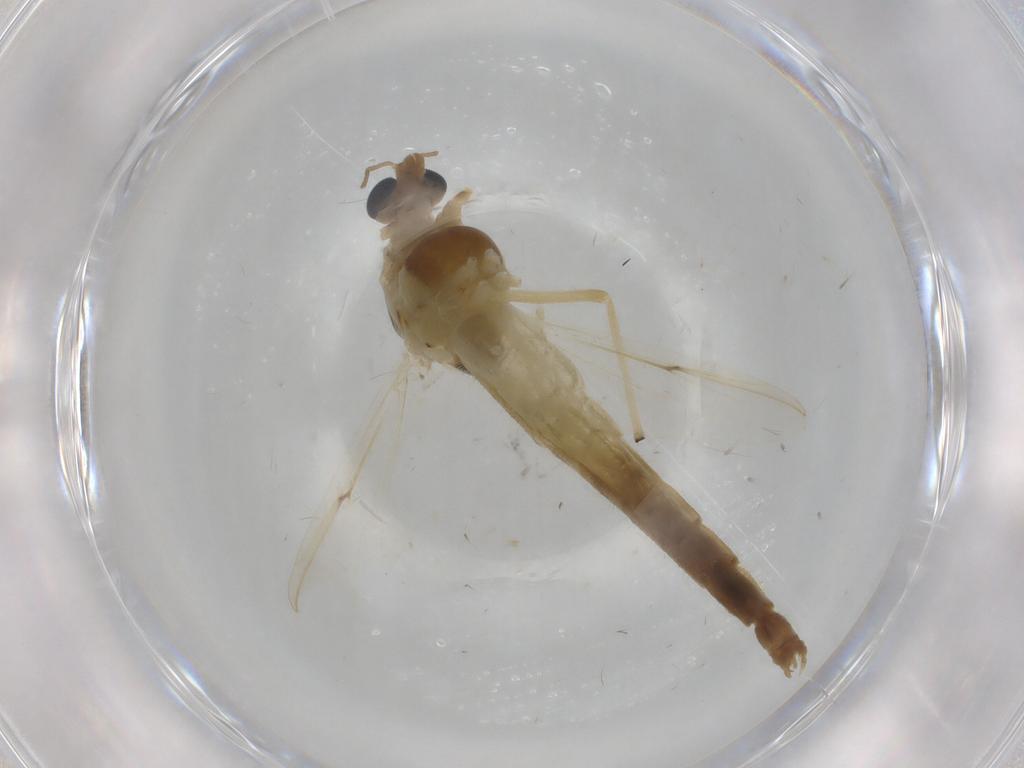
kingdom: Animalia
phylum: Arthropoda
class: Insecta
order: Diptera
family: Chironomidae
